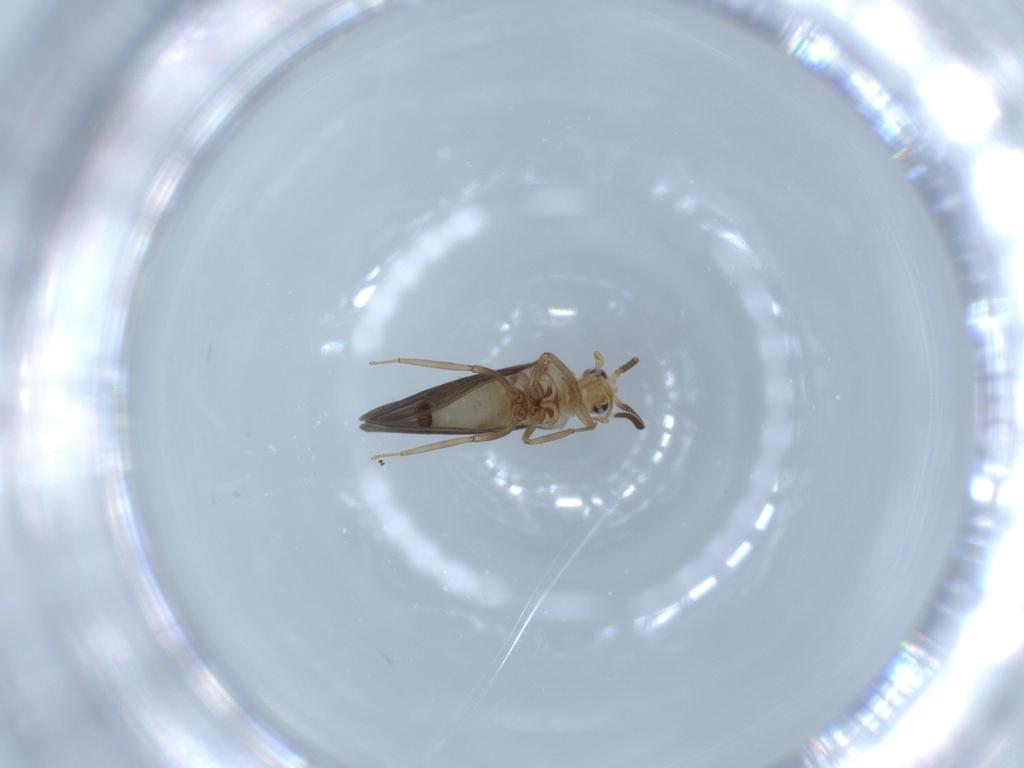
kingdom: Animalia
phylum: Arthropoda
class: Insecta
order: Neuroptera
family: Coniopterygidae
